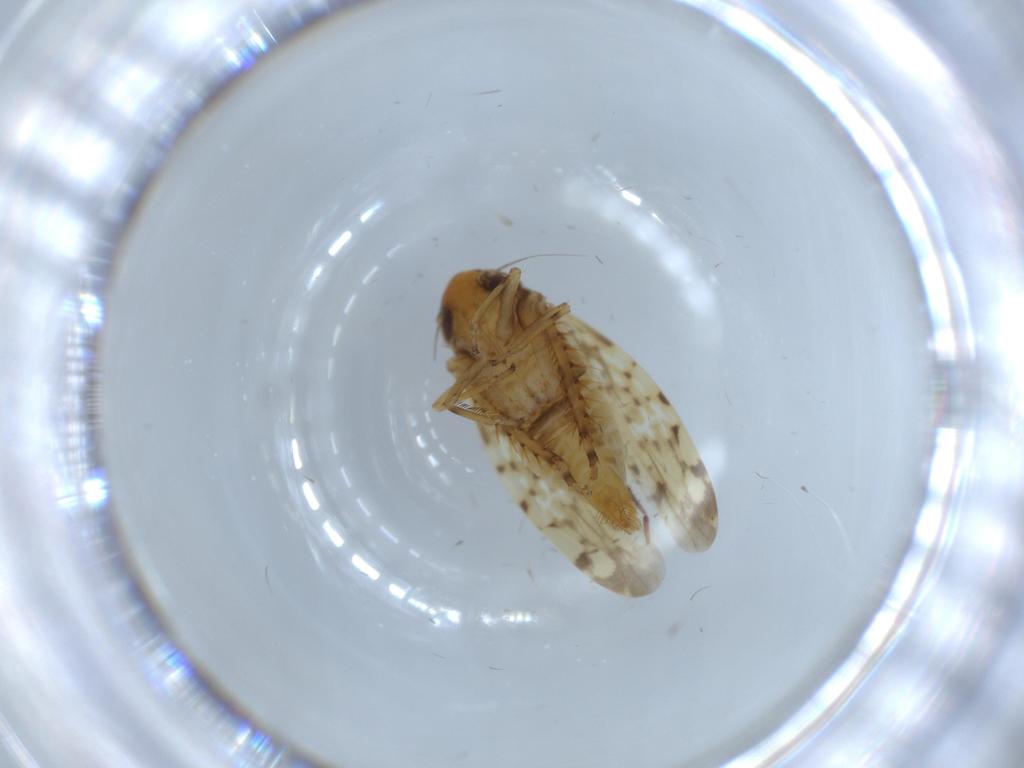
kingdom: Animalia
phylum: Arthropoda
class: Insecta
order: Hemiptera
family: Cicadellidae
